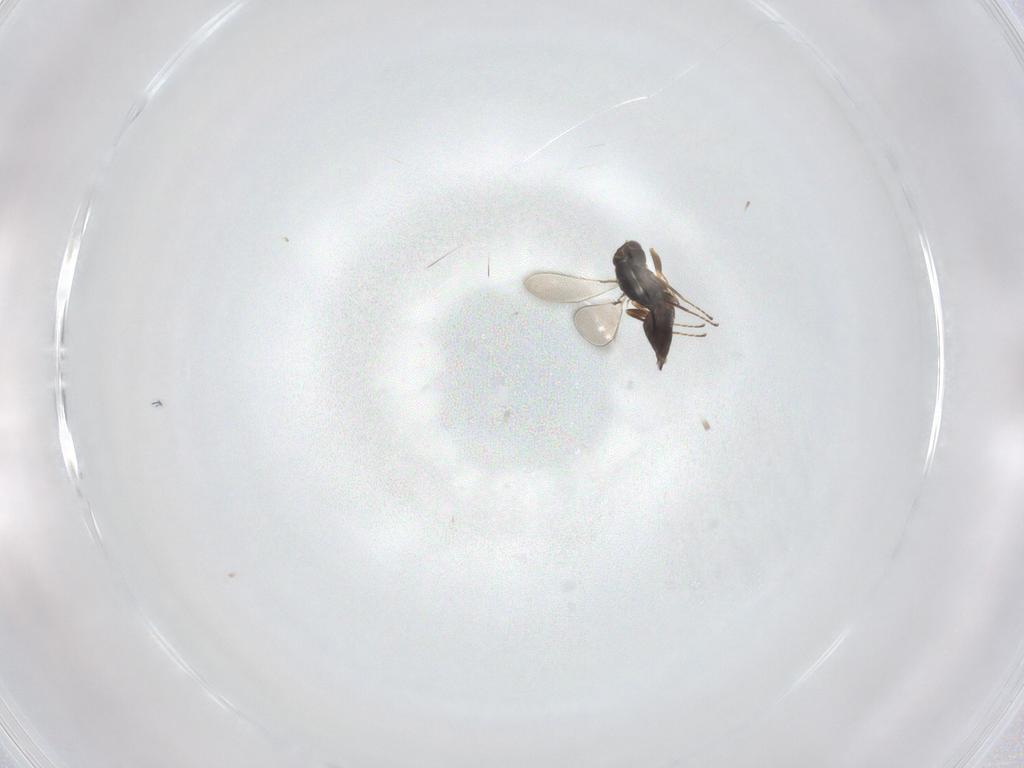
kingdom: Animalia
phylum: Arthropoda
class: Insecta
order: Hymenoptera
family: Mymaridae
